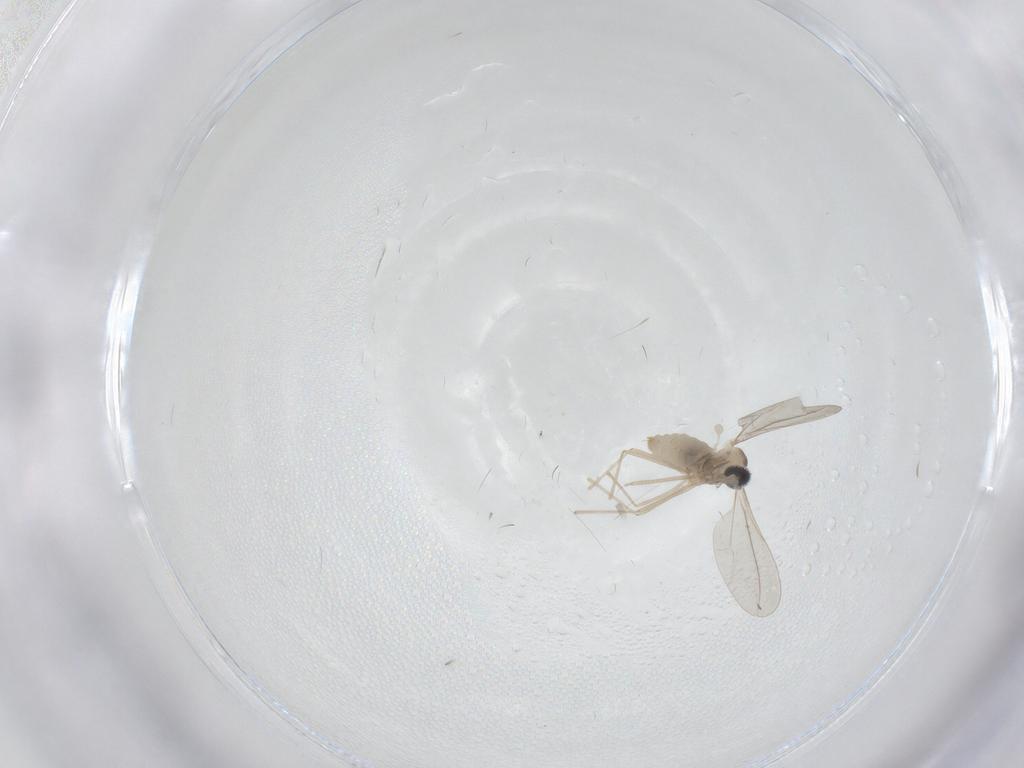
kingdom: Animalia
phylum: Arthropoda
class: Insecta
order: Diptera
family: Cecidomyiidae
